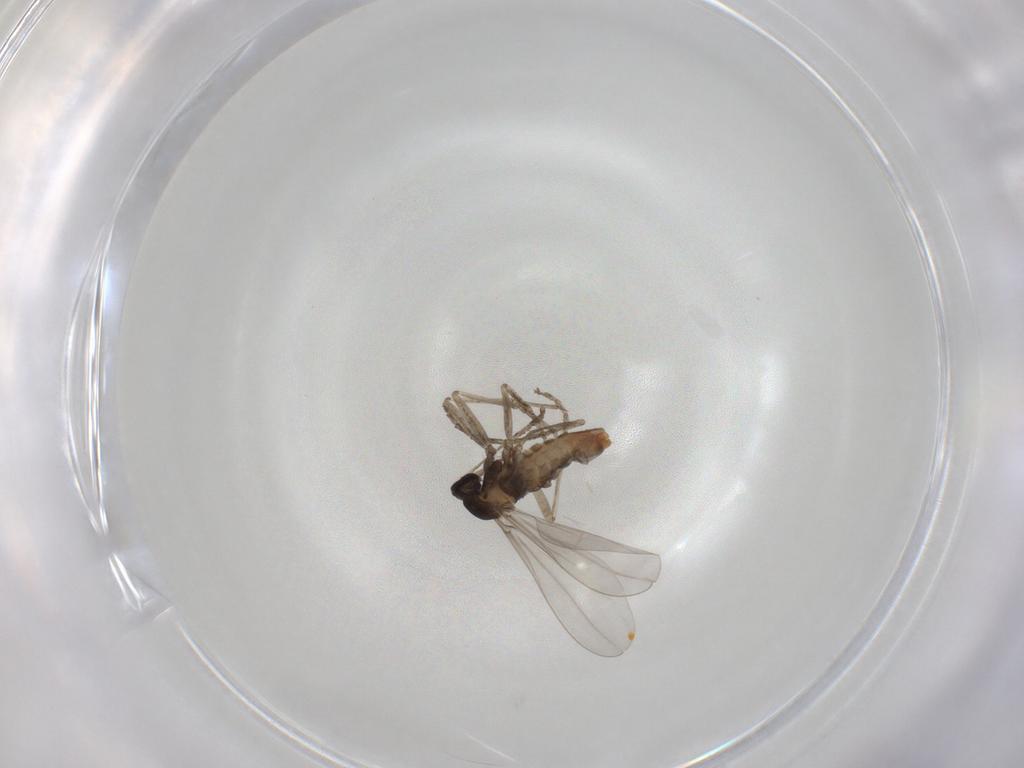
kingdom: Animalia
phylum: Arthropoda
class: Insecta
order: Diptera
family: Cecidomyiidae
